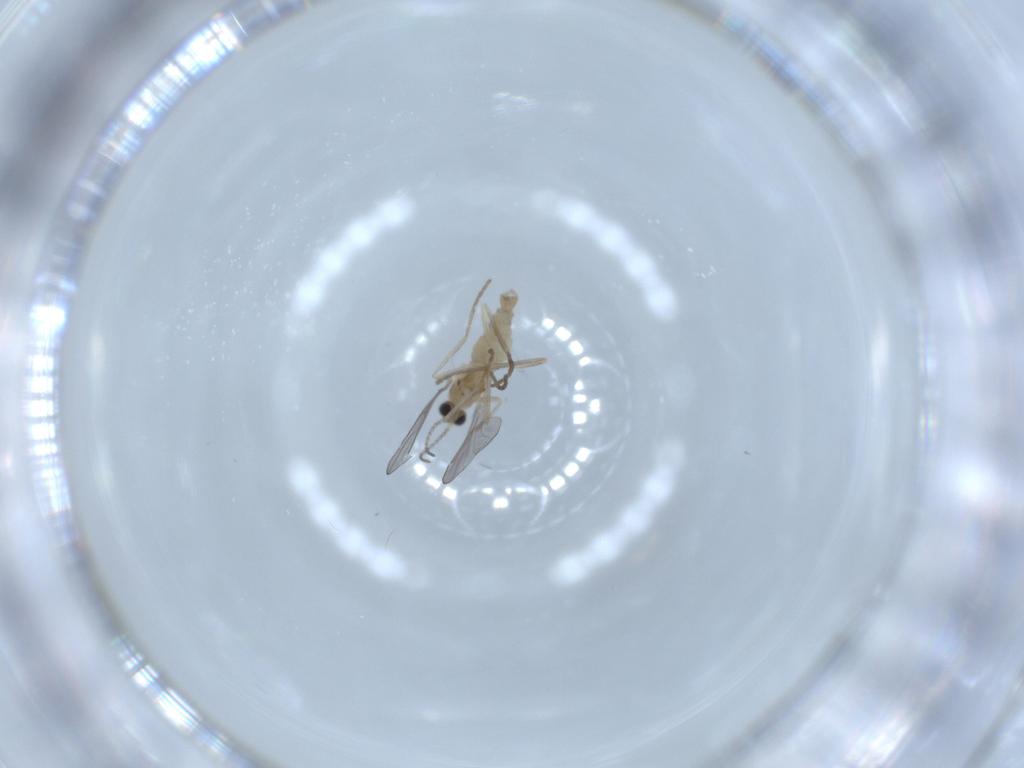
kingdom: Animalia
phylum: Arthropoda
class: Insecta
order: Diptera
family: Cecidomyiidae
